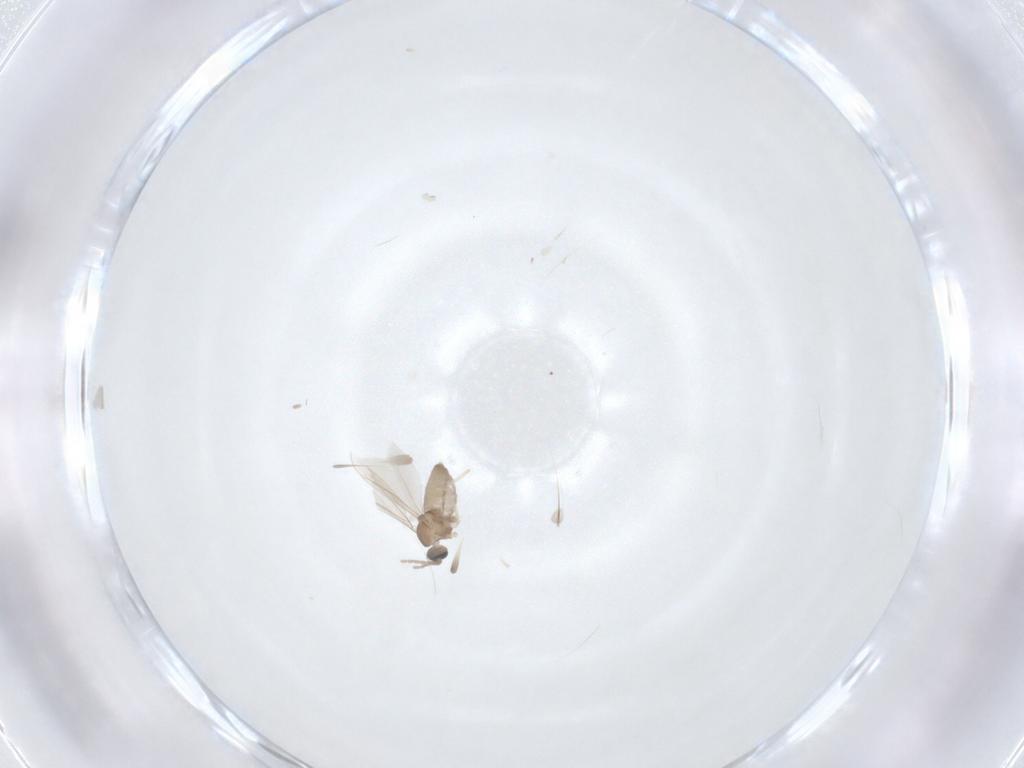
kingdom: Animalia
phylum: Arthropoda
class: Insecta
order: Diptera
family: Cecidomyiidae
